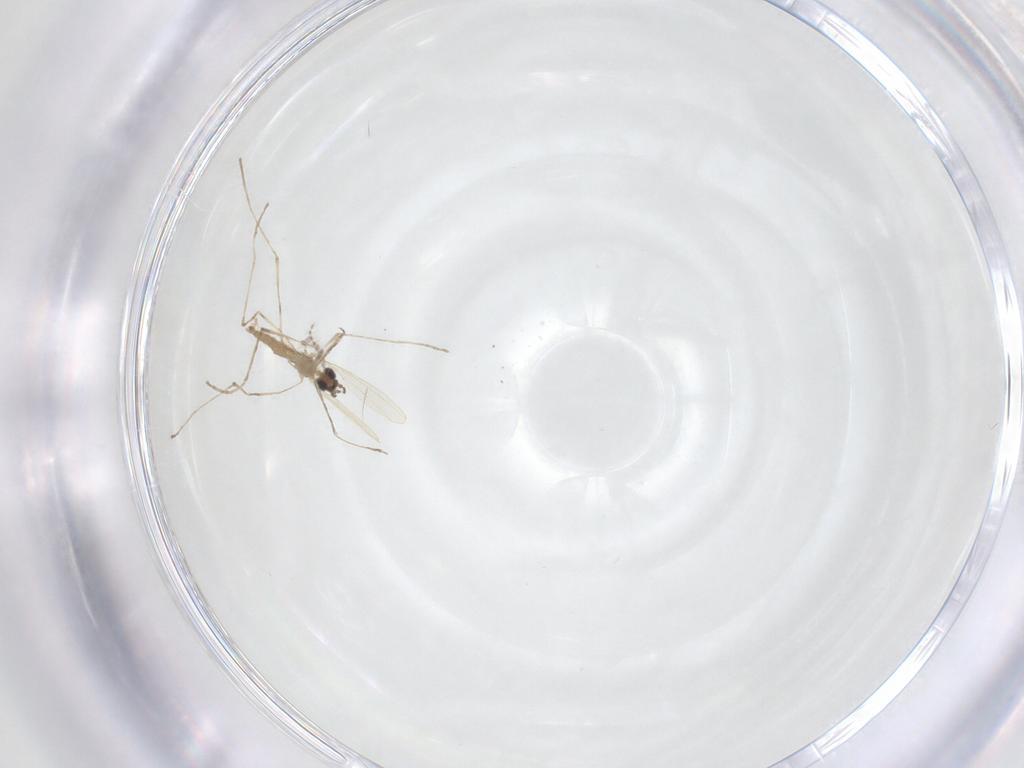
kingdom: Animalia
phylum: Arthropoda
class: Insecta
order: Diptera
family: Cecidomyiidae
